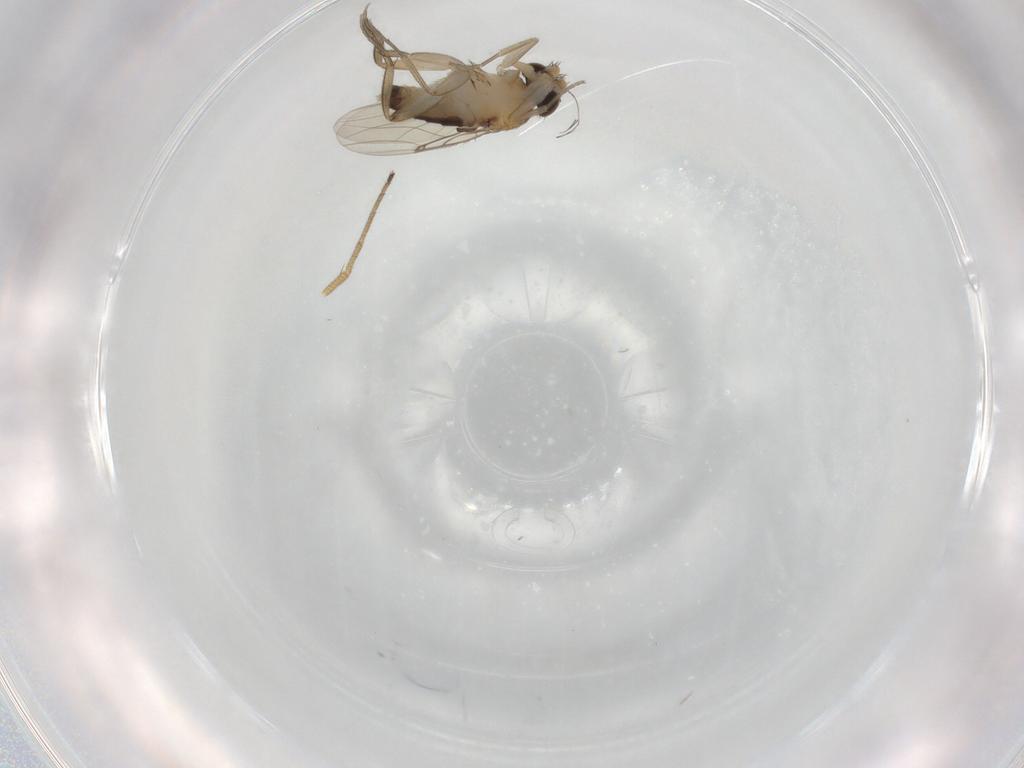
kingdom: Animalia
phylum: Arthropoda
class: Insecta
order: Diptera
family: Phoridae
